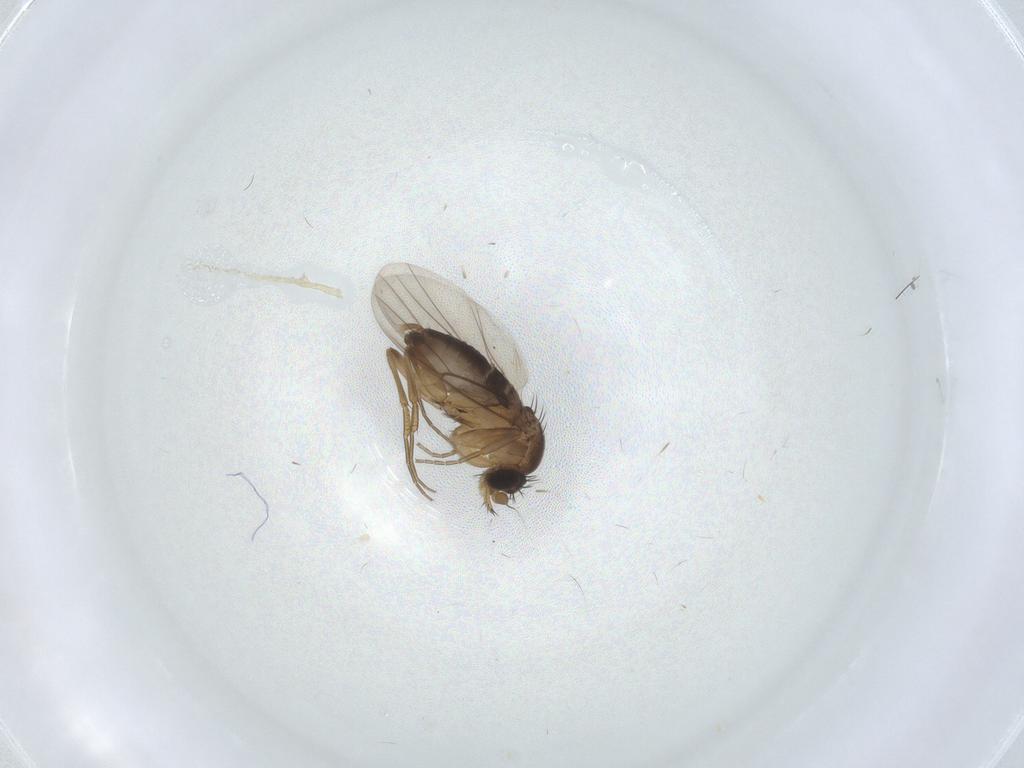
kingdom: Animalia
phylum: Arthropoda
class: Insecta
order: Diptera
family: Phoridae
